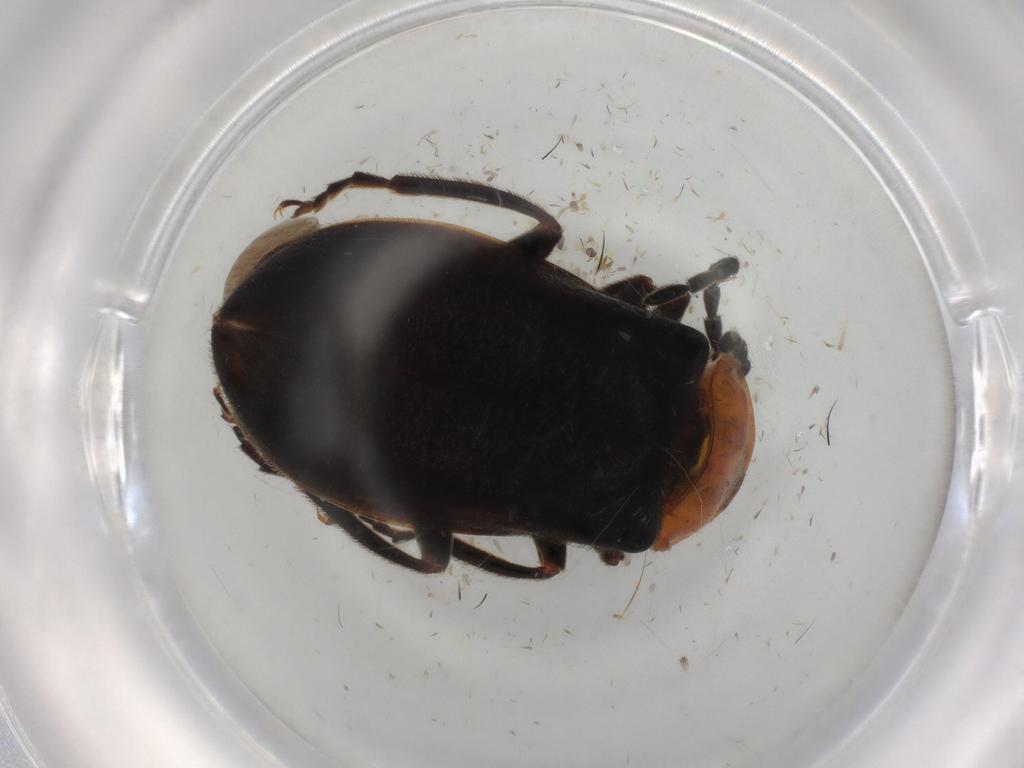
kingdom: Animalia
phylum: Arthropoda
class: Insecta
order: Coleoptera
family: Cantharidae
